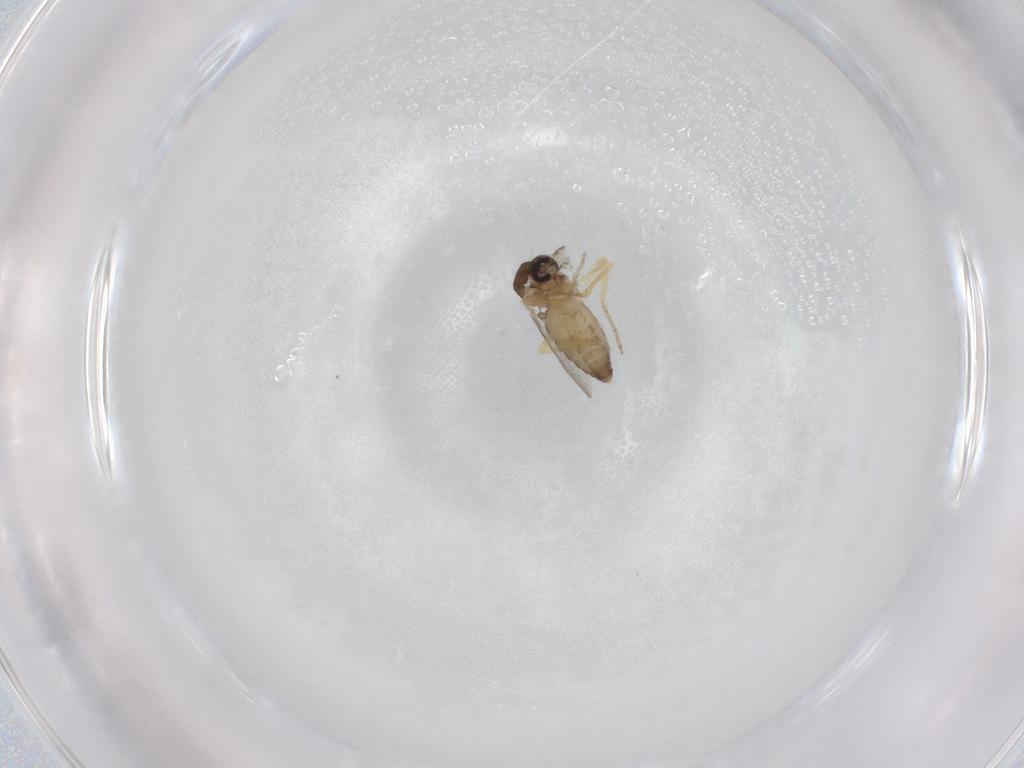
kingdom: Animalia
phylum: Arthropoda
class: Insecta
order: Diptera
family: Ceratopogonidae
